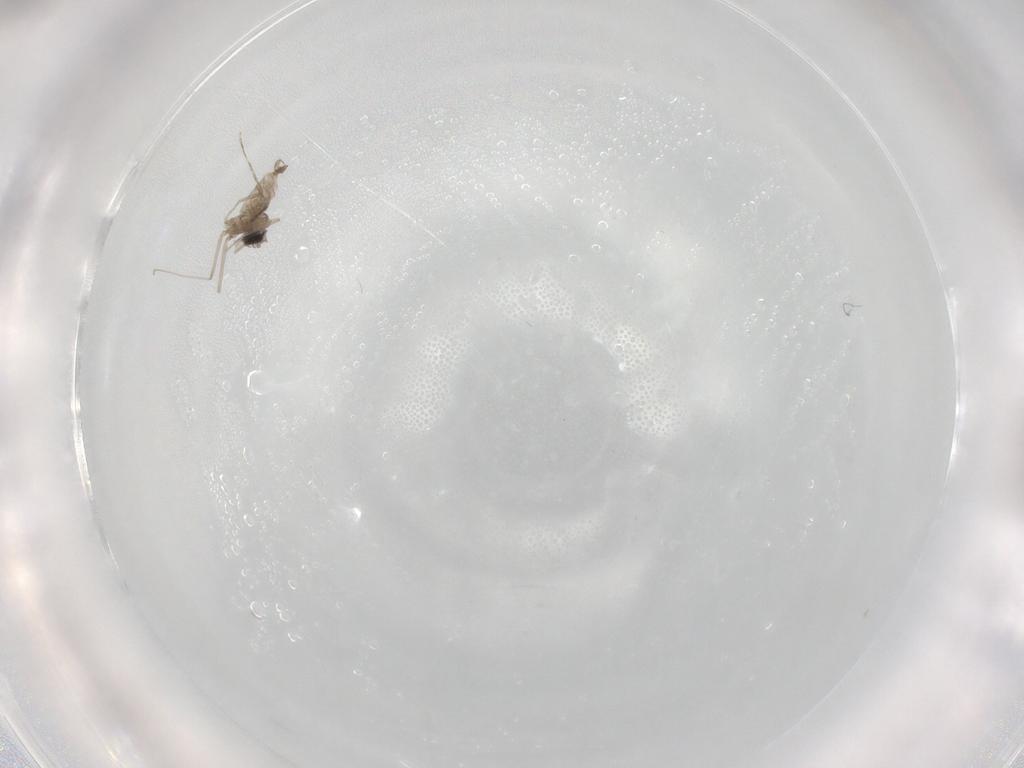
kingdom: Animalia
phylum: Arthropoda
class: Insecta
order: Diptera
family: Cecidomyiidae
